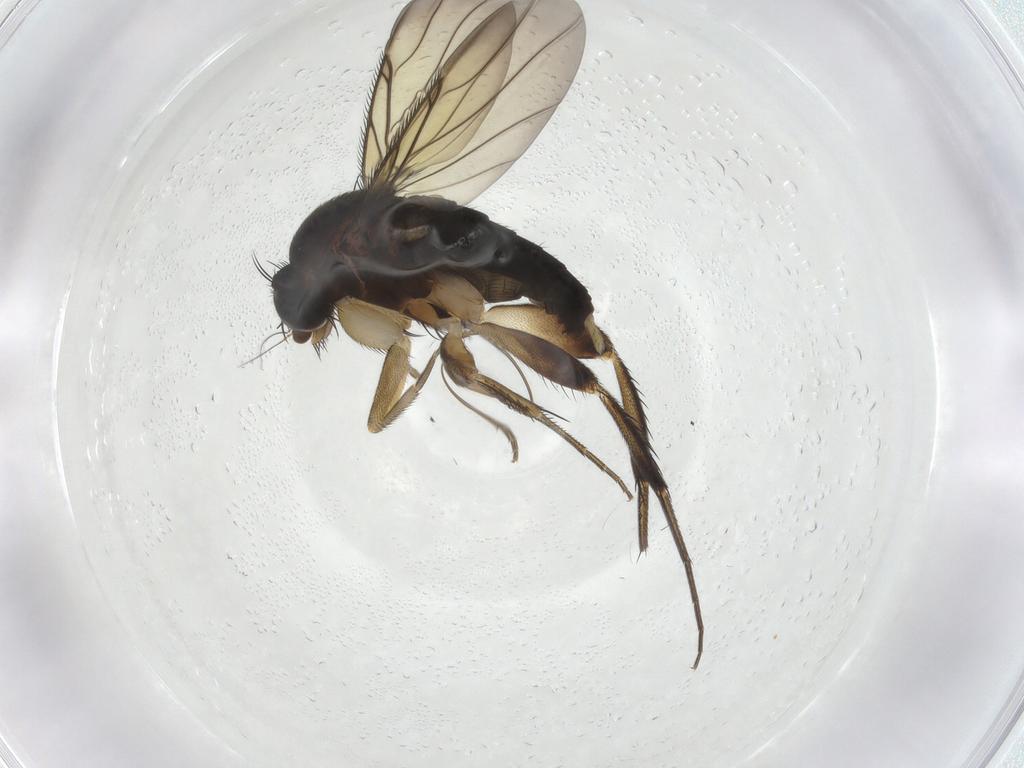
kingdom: Animalia
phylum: Arthropoda
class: Insecta
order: Diptera
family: Phoridae
